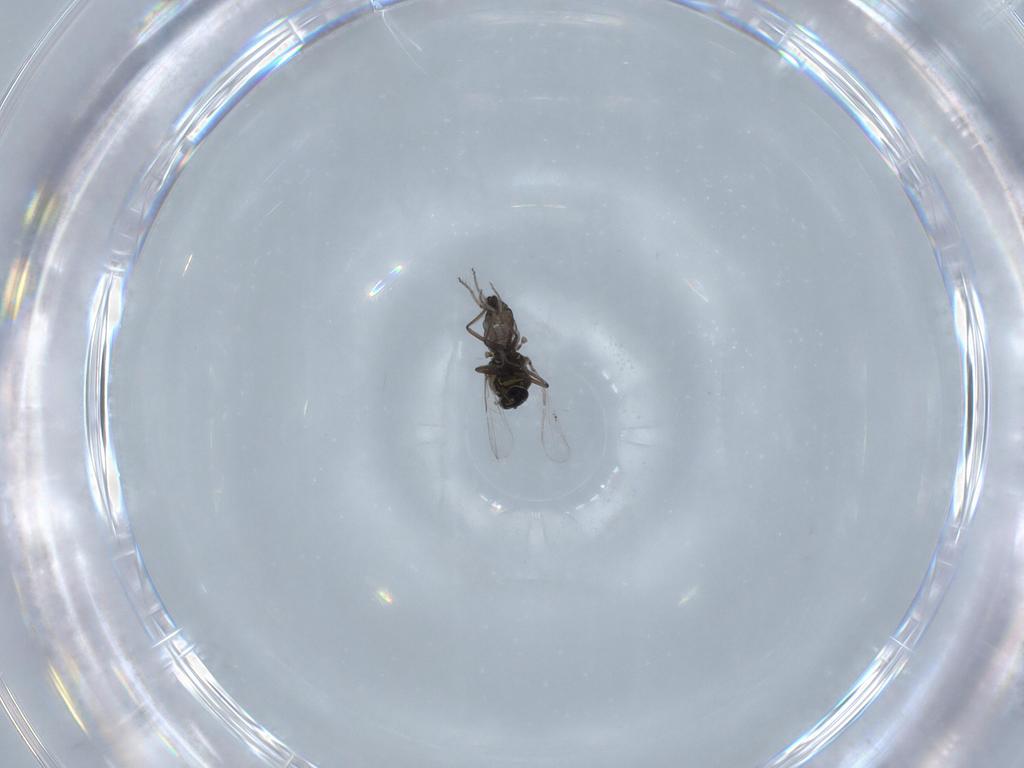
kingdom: Animalia
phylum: Arthropoda
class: Insecta
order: Diptera
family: Ceratopogonidae
